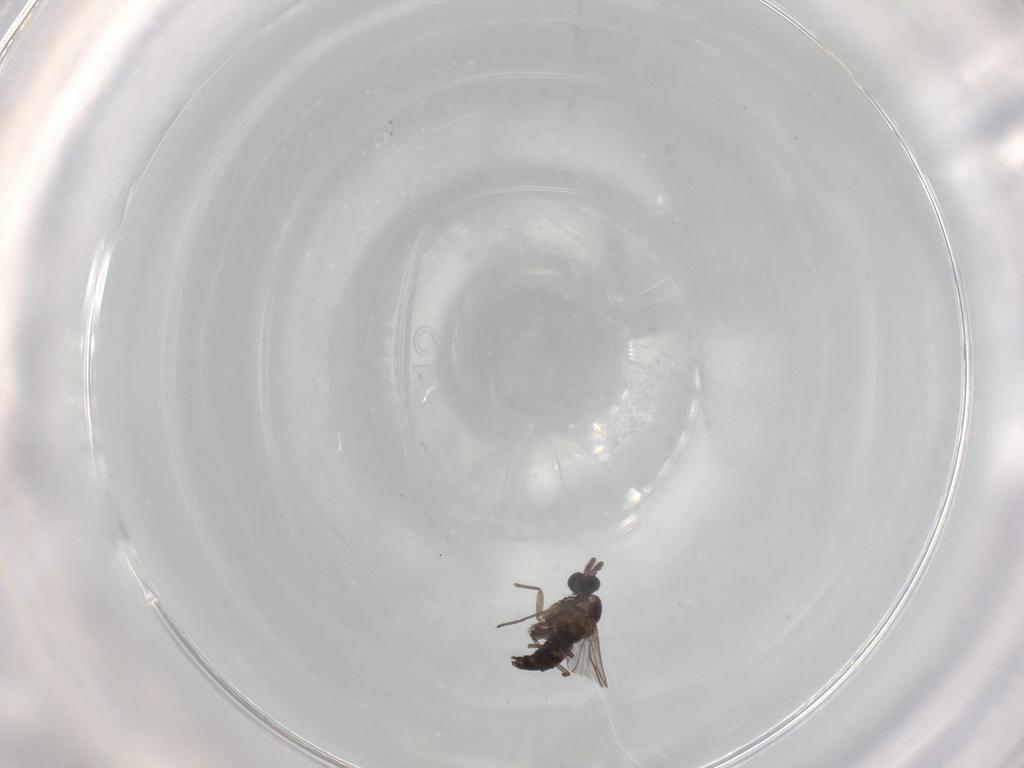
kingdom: Animalia
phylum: Arthropoda
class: Insecta
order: Diptera
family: Cecidomyiidae
